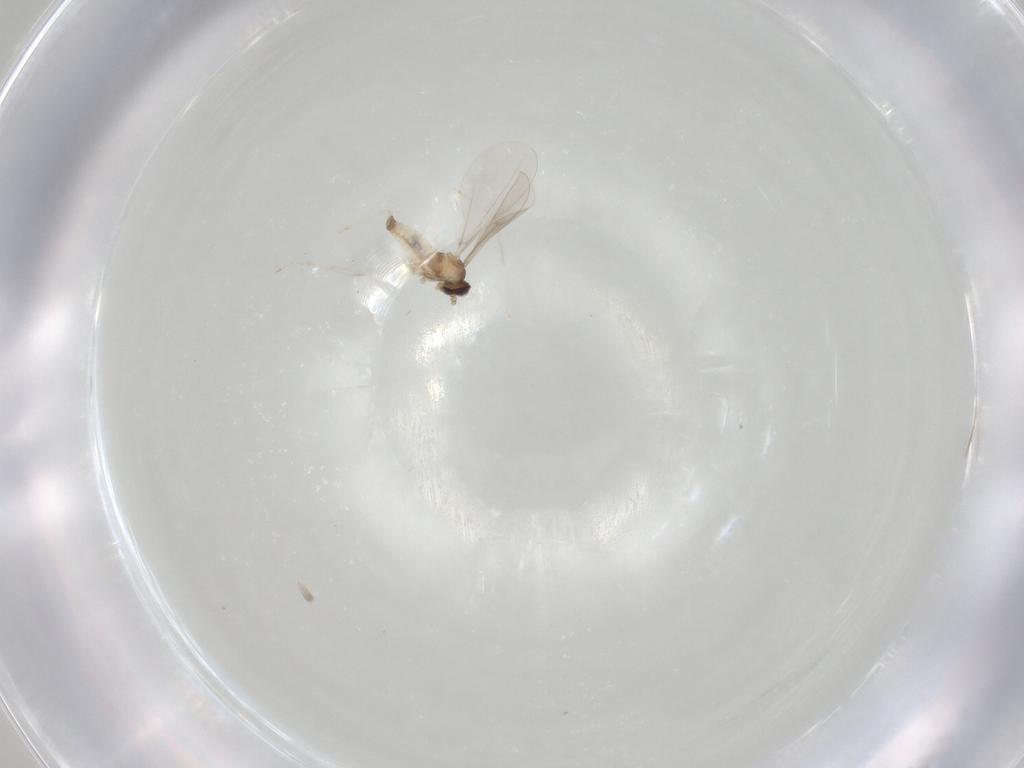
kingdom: Animalia
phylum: Arthropoda
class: Insecta
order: Diptera
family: Cecidomyiidae
